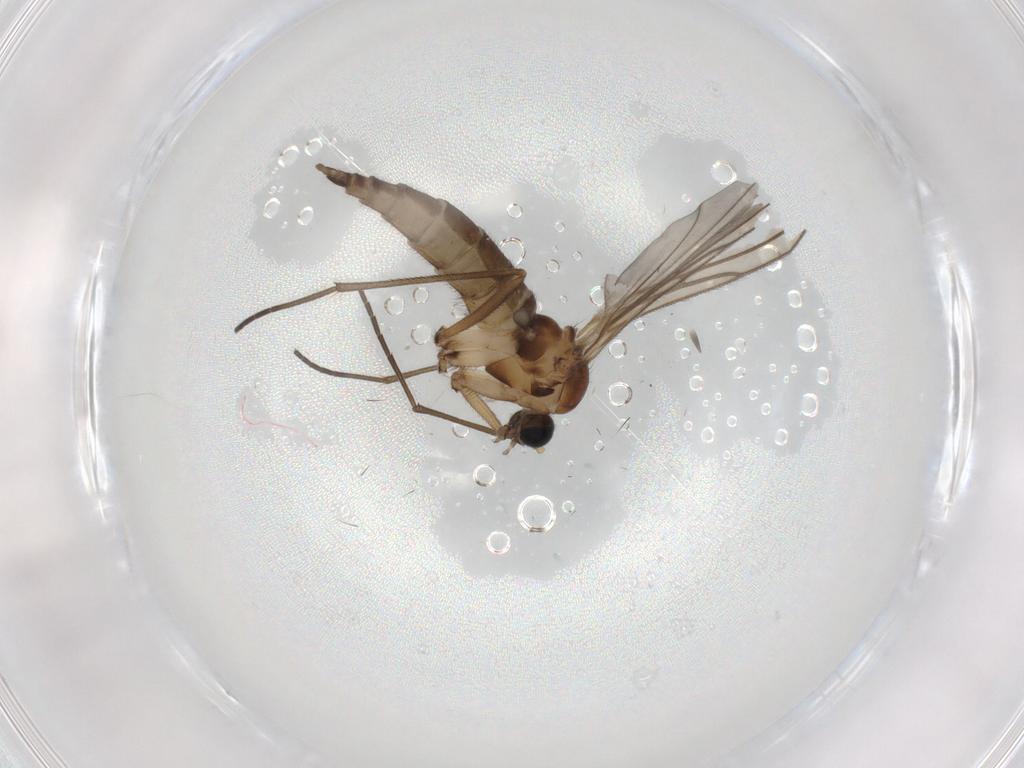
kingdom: Animalia
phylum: Arthropoda
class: Insecta
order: Diptera
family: Sciaridae
